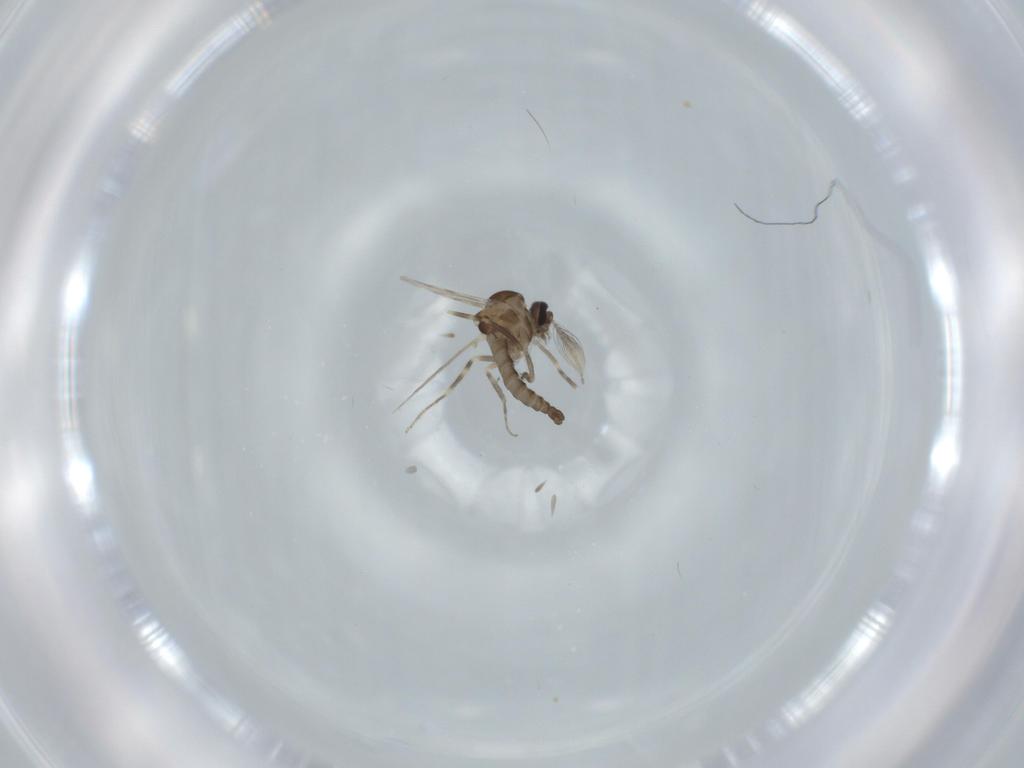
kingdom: Animalia
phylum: Arthropoda
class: Insecta
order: Diptera
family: Ceratopogonidae
